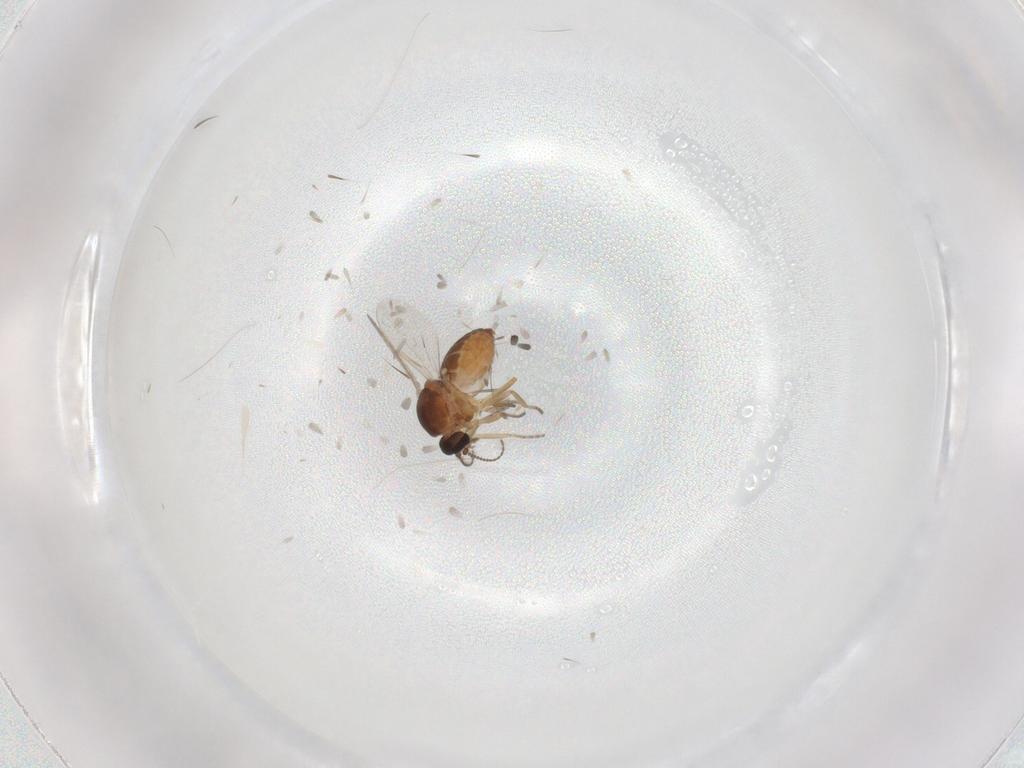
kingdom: Animalia
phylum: Arthropoda
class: Insecta
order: Diptera
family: Ceratopogonidae
